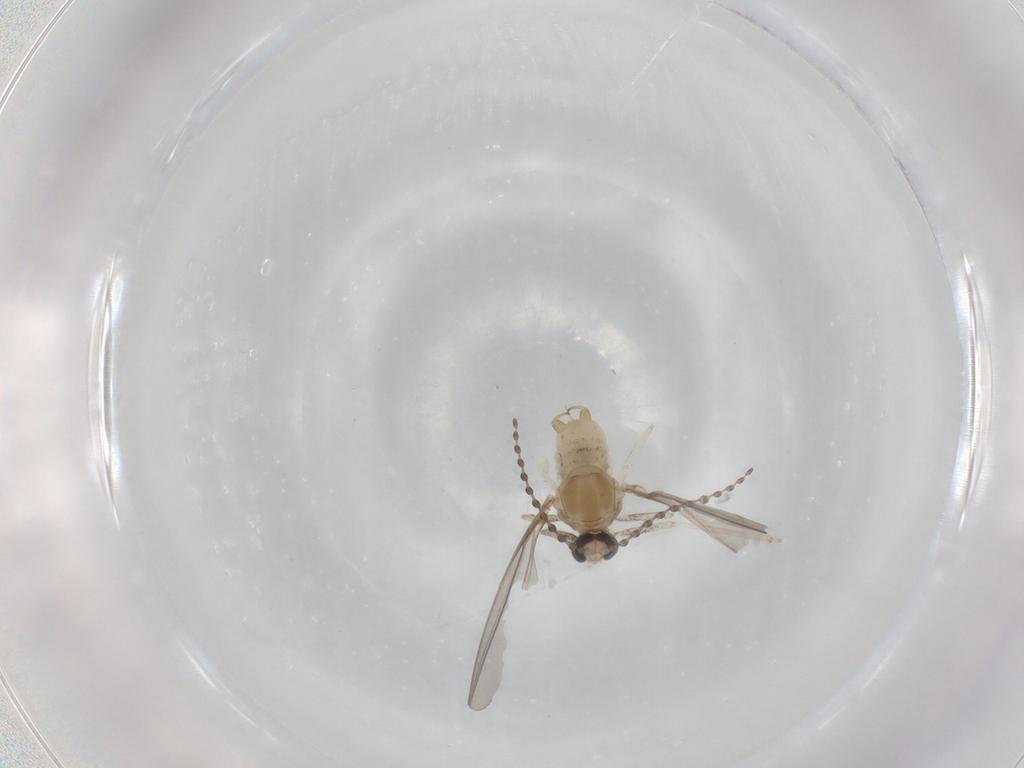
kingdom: Animalia
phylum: Arthropoda
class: Insecta
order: Diptera
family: Cecidomyiidae
